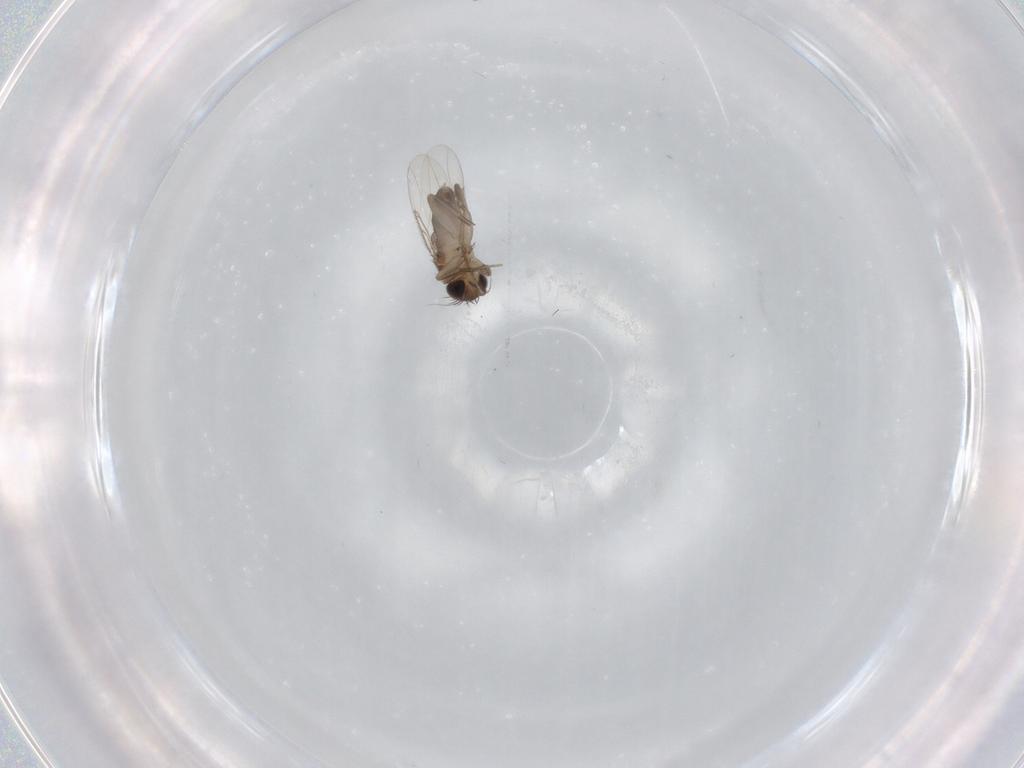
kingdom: Animalia
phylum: Arthropoda
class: Insecta
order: Diptera
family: Phoridae
